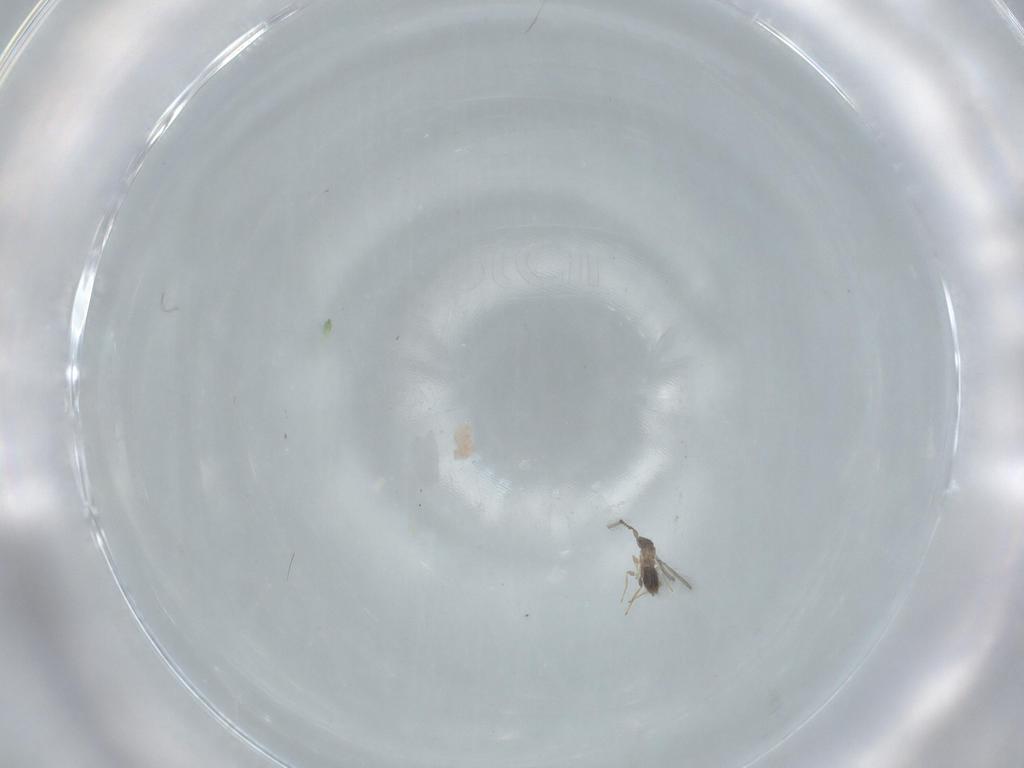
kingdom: Animalia
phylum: Arthropoda
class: Insecta
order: Hymenoptera
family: Mymaridae
